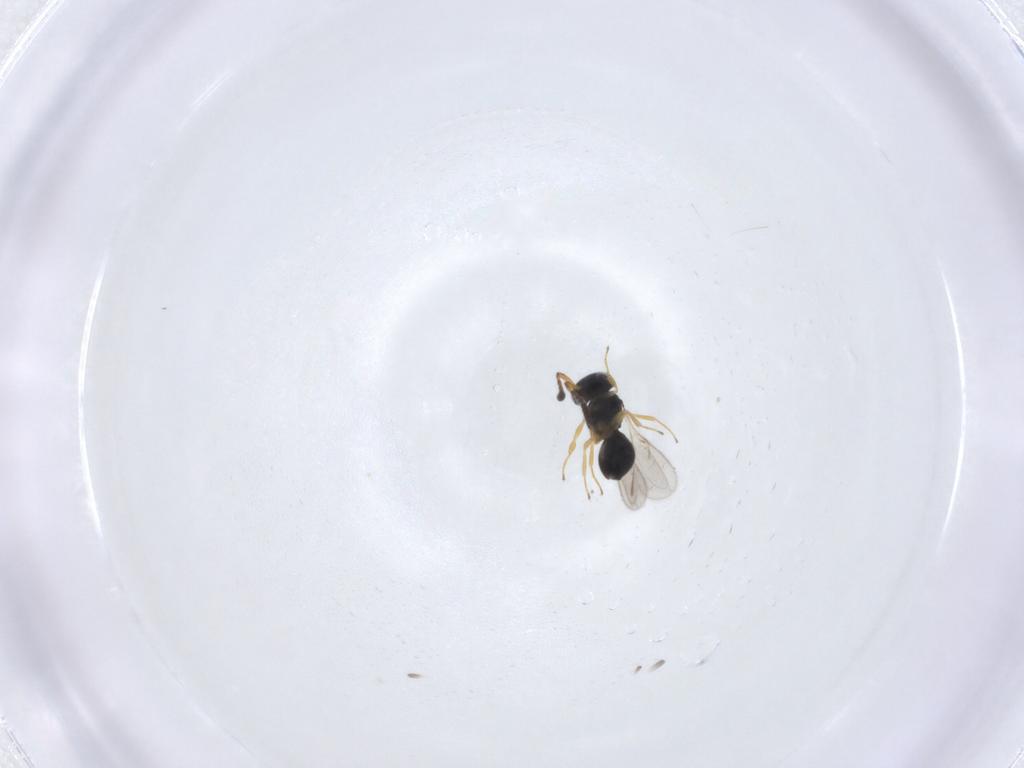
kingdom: Animalia
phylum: Arthropoda
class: Insecta
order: Hymenoptera
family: Scelionidae
